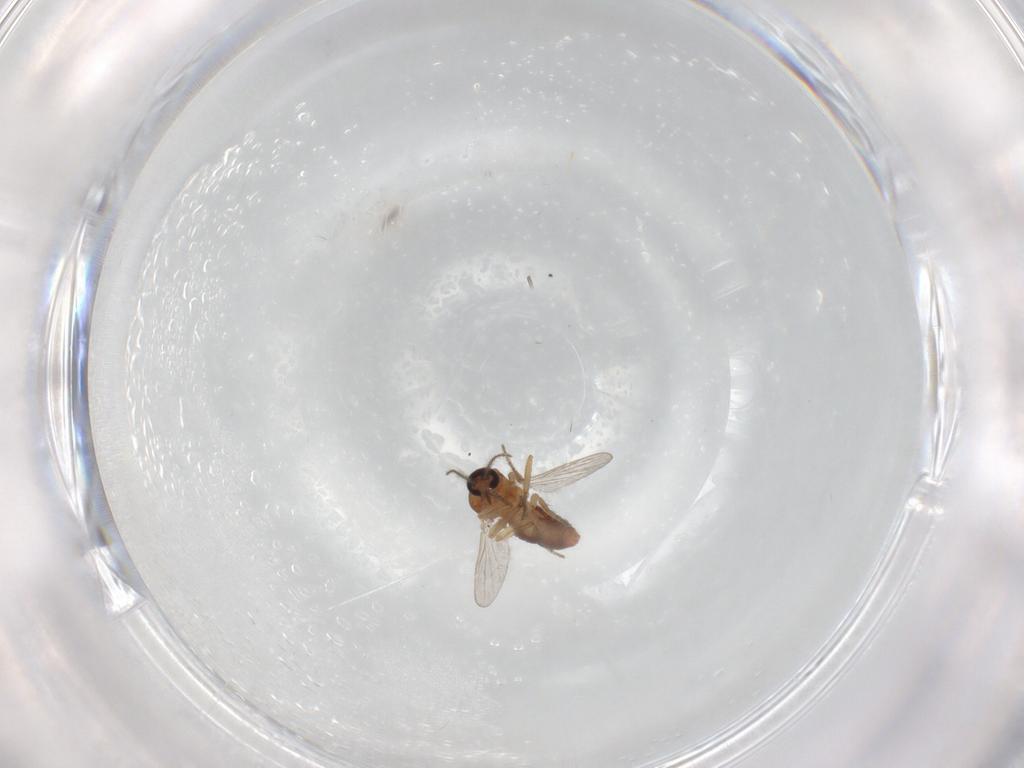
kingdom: Animalia
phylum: Arthropoda
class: Insecta
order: Diptera
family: Ceratopogonidae
